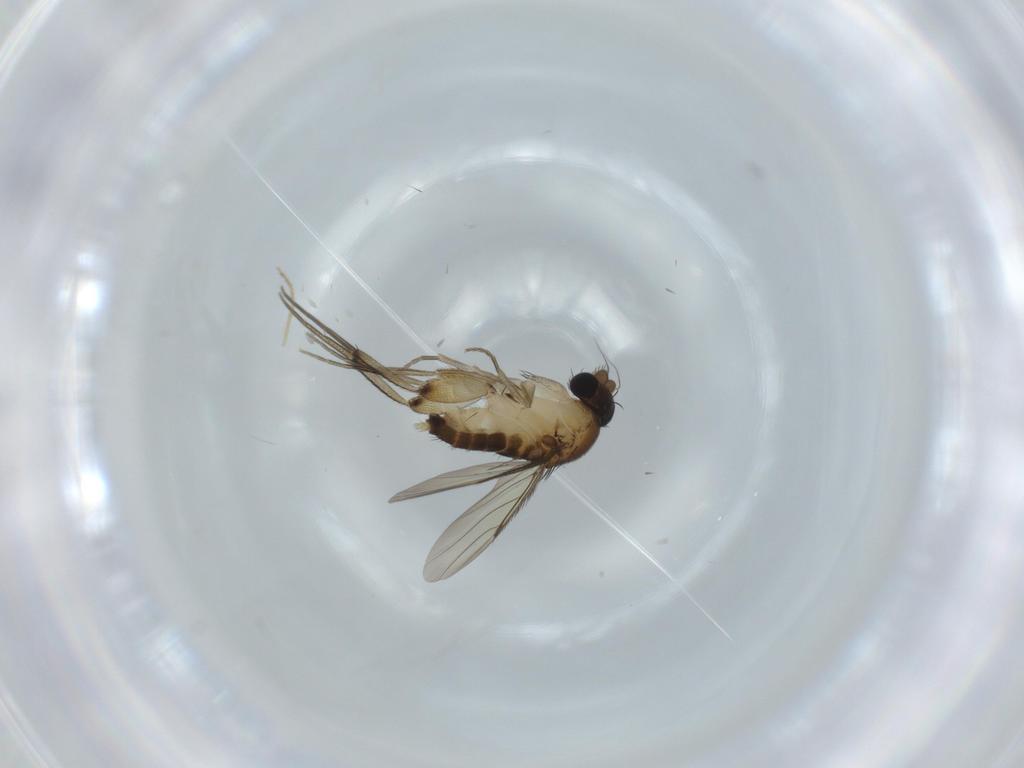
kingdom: Animalia
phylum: Arthropoda
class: Insecta
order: Diptera
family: Phoridae
